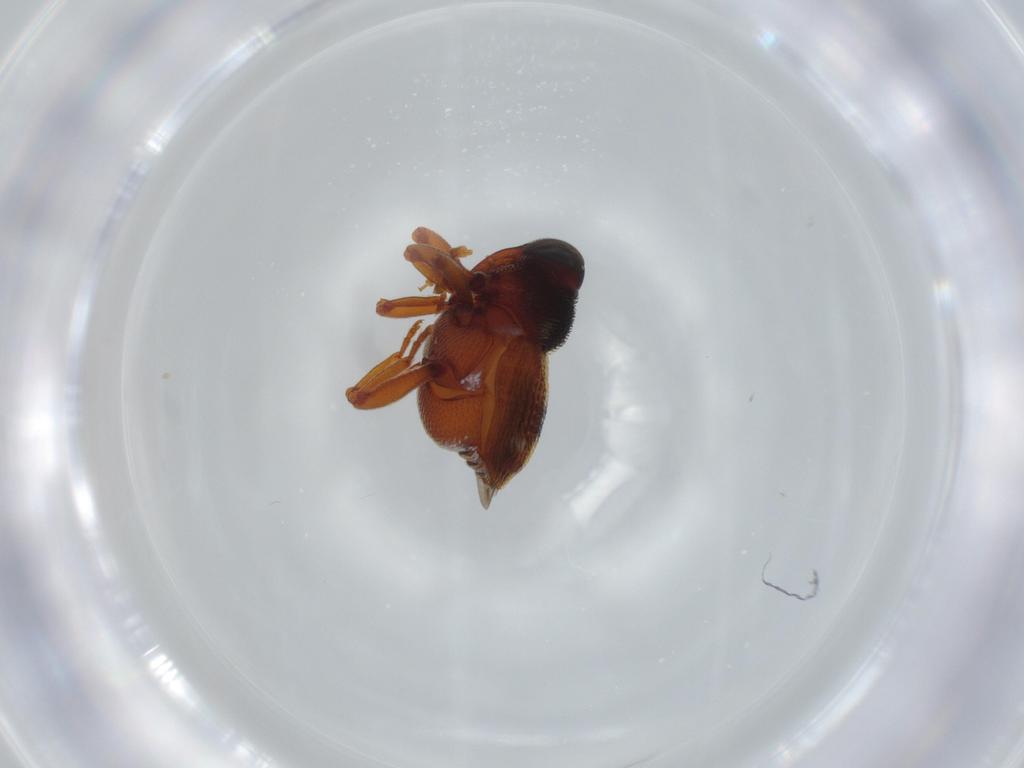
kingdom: Animalia
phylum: Arthropoda
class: Insecta
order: Coleoptera
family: Curculionidae
